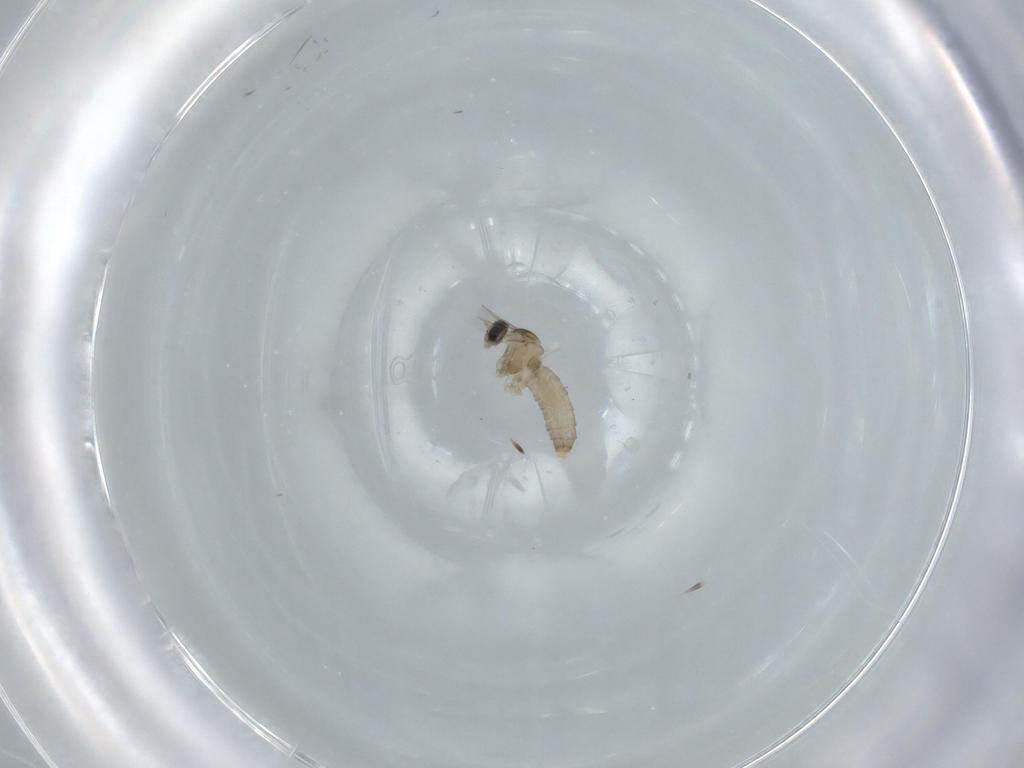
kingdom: Animalia
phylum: Arthropoda
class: Insecta
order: Diptera
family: Cecidomyiidae
